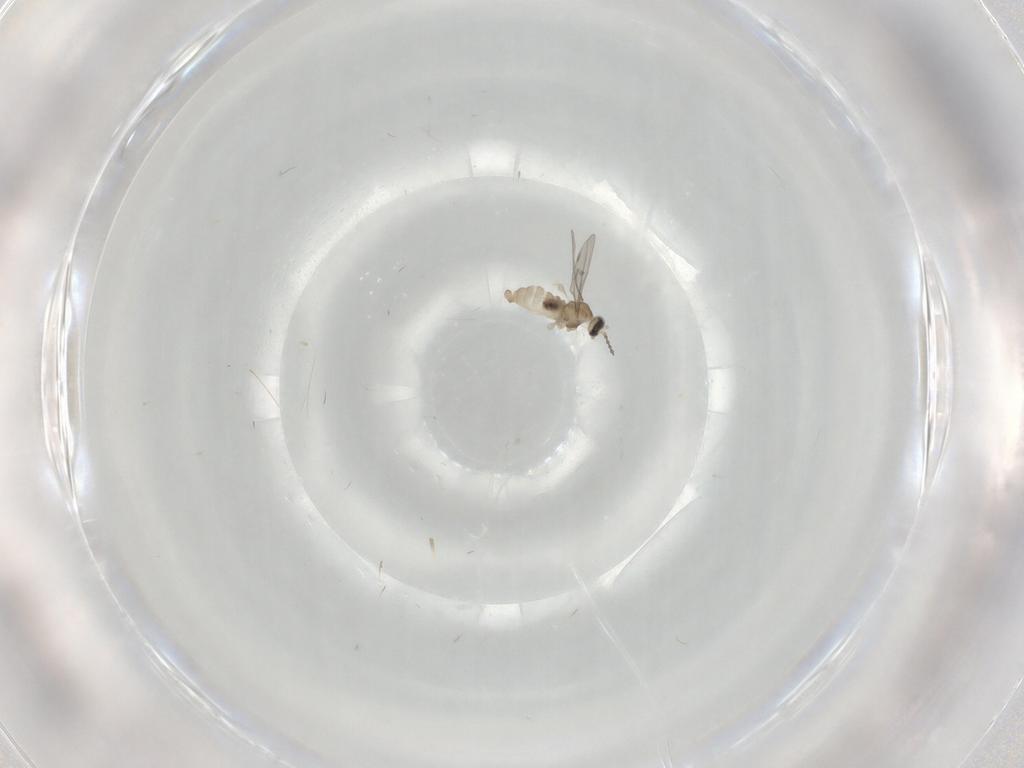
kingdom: Animalia
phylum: Arthropoda
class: Insecta
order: Diptera
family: Cecidomyiidae
